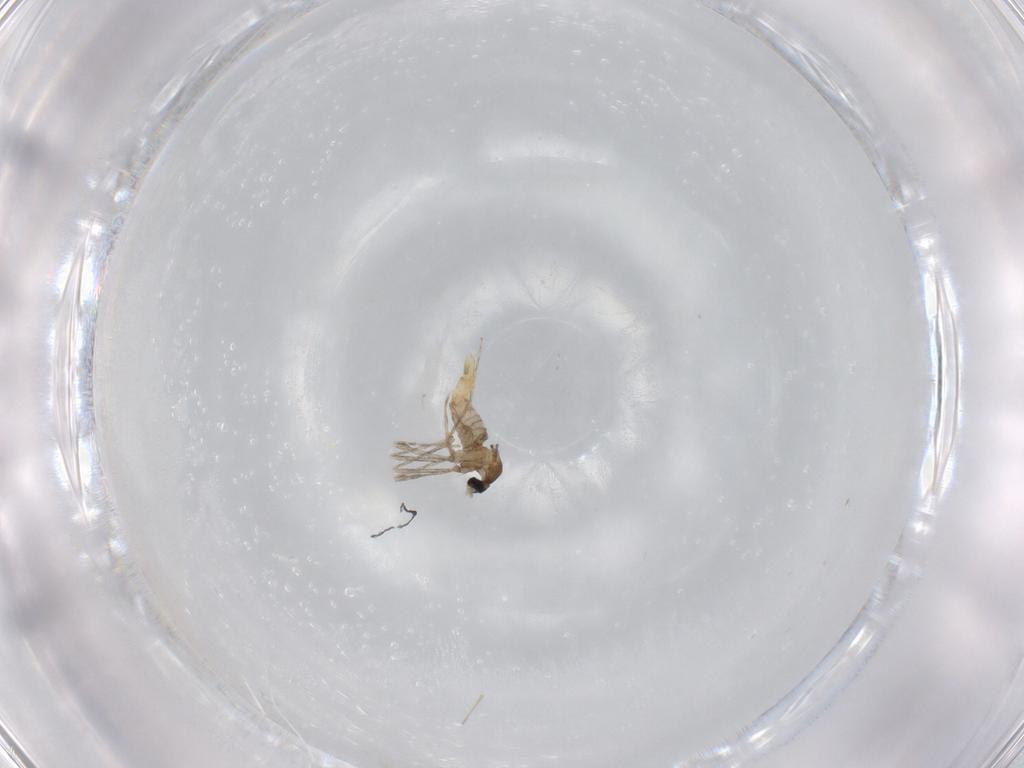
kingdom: Animalia
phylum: Arthropoda
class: Insecta
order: Diptera
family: Cecidomyiidae
